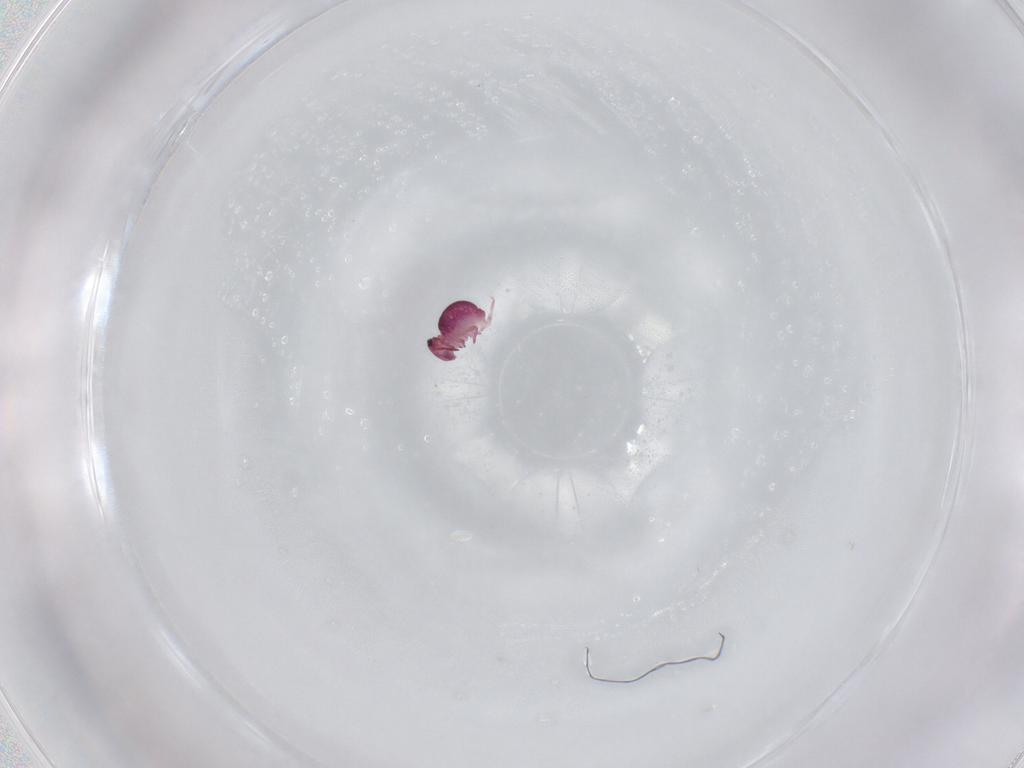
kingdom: Animalia
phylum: Arthropoda
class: Collembola
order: Symphypleona
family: Sminthurididae
